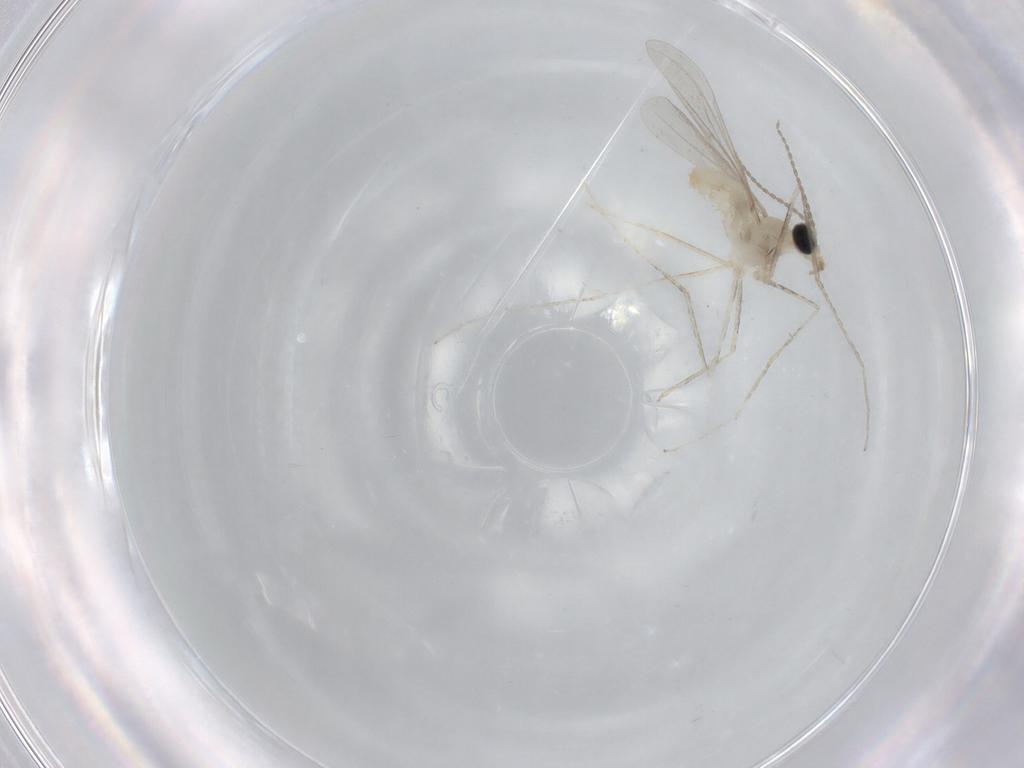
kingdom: Animalia
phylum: Arthropoda
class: Insecta
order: Diptera
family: Cecidomyiidae
